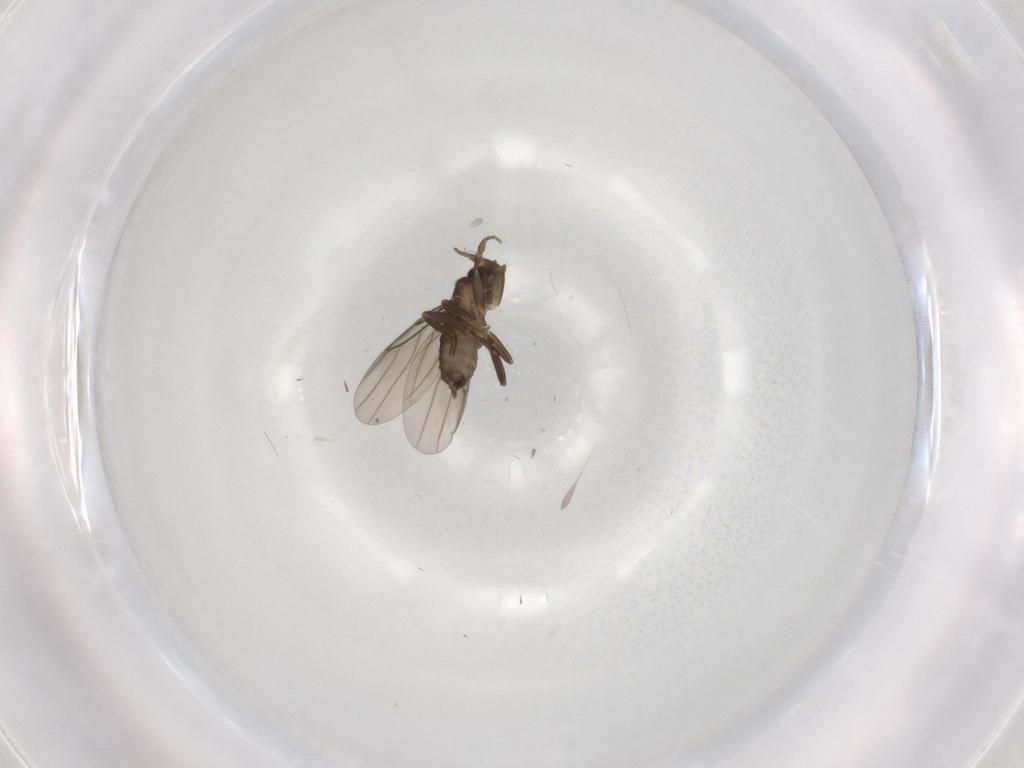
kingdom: Animalia
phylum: Arthropoda
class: Insecta
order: Diptera
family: Phoridae
